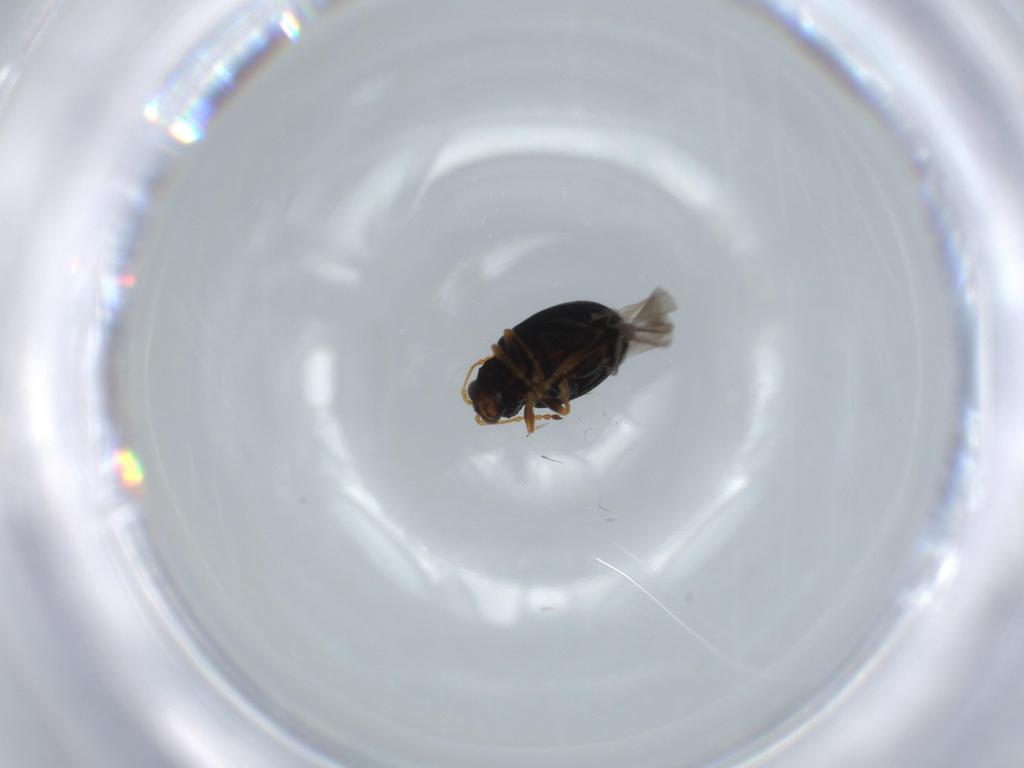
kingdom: Animalia
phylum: Arthropoda
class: Insecta
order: Coleoptera
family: Chrysomelidae
